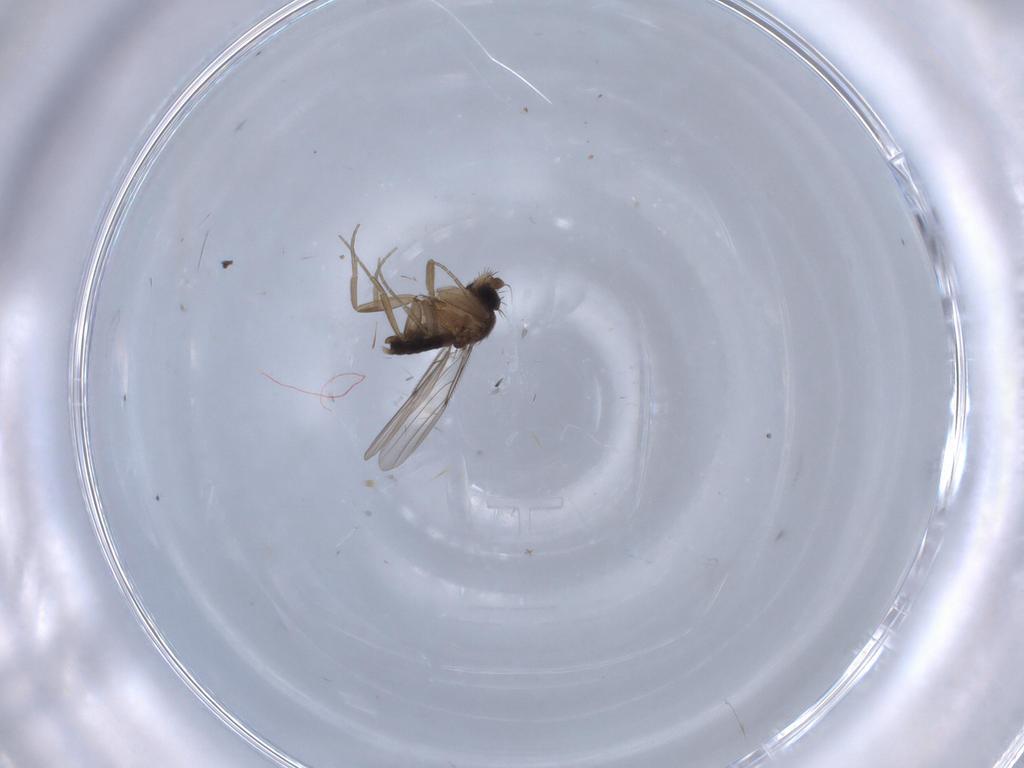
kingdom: Animalia
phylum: Arthropoda
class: Insecta
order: Diptera
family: Phoridae
